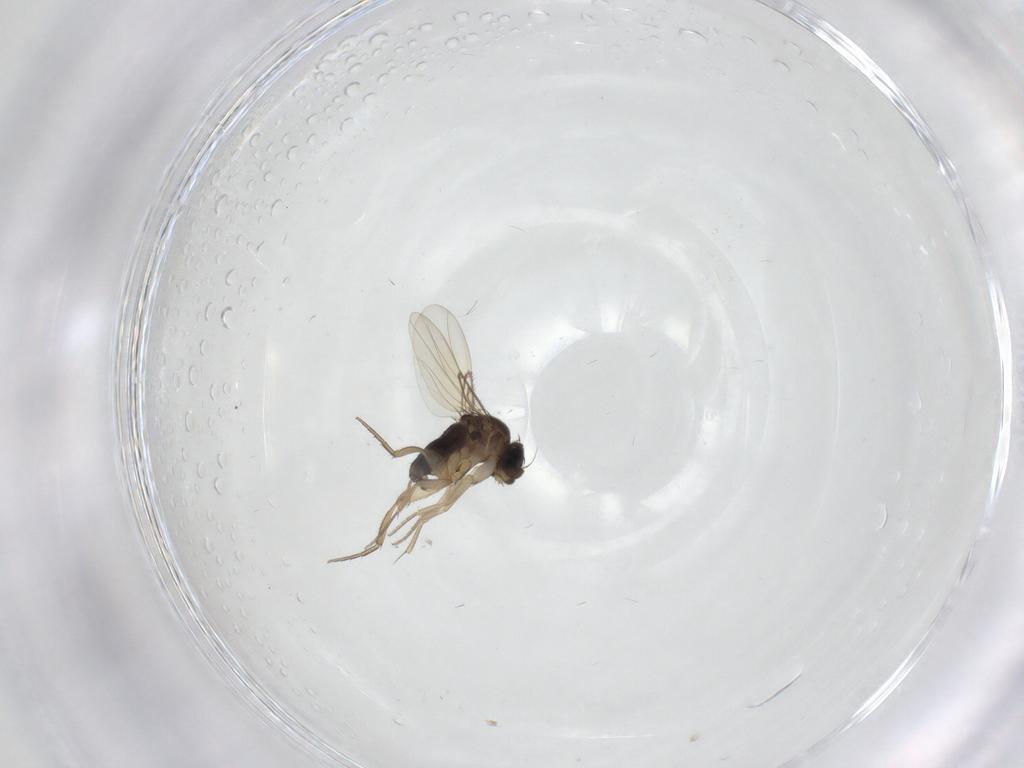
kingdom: Animalia
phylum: Arthropoda
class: Insecta
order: Diptera
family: Phoridae
